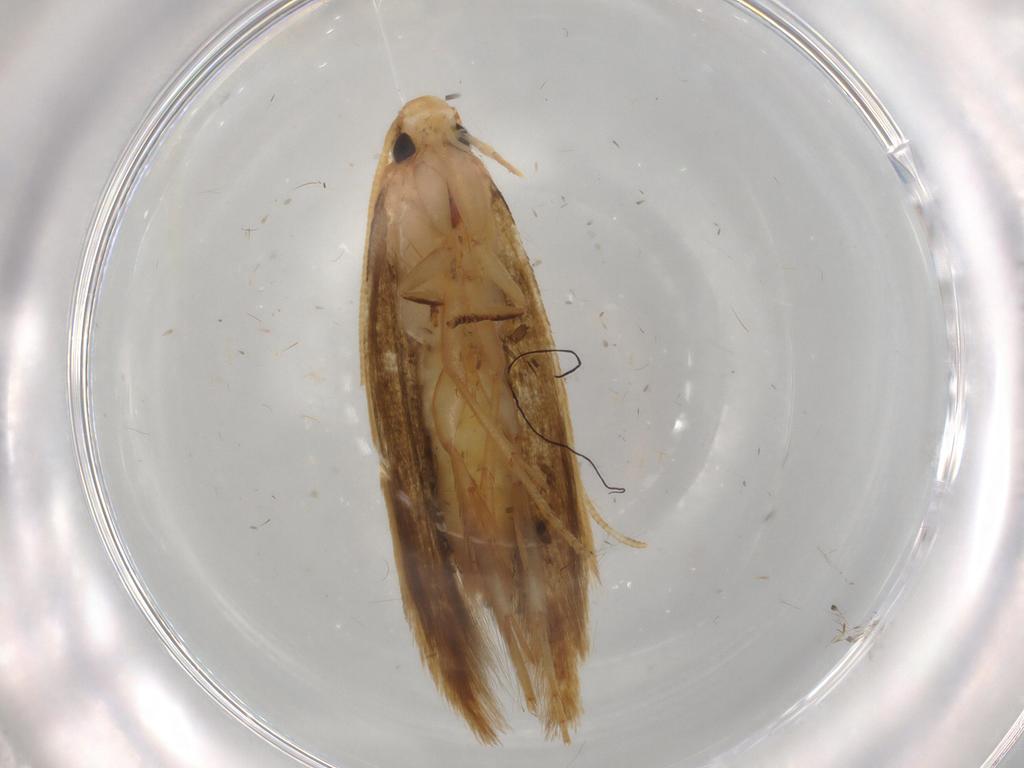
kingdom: Animalia
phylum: Arthropoda
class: Insecta
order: Lepidoptera
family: Tineidae
